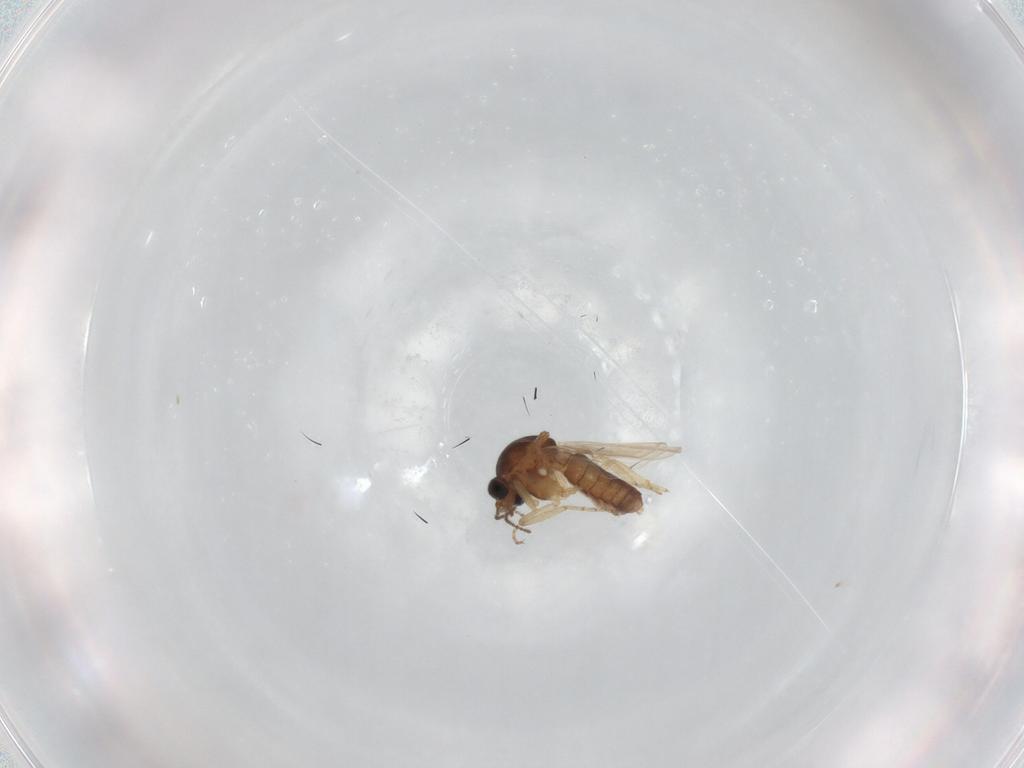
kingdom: Animalia
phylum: Arthropoda
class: Insecta
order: Diptera
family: Ceratopogonidae
